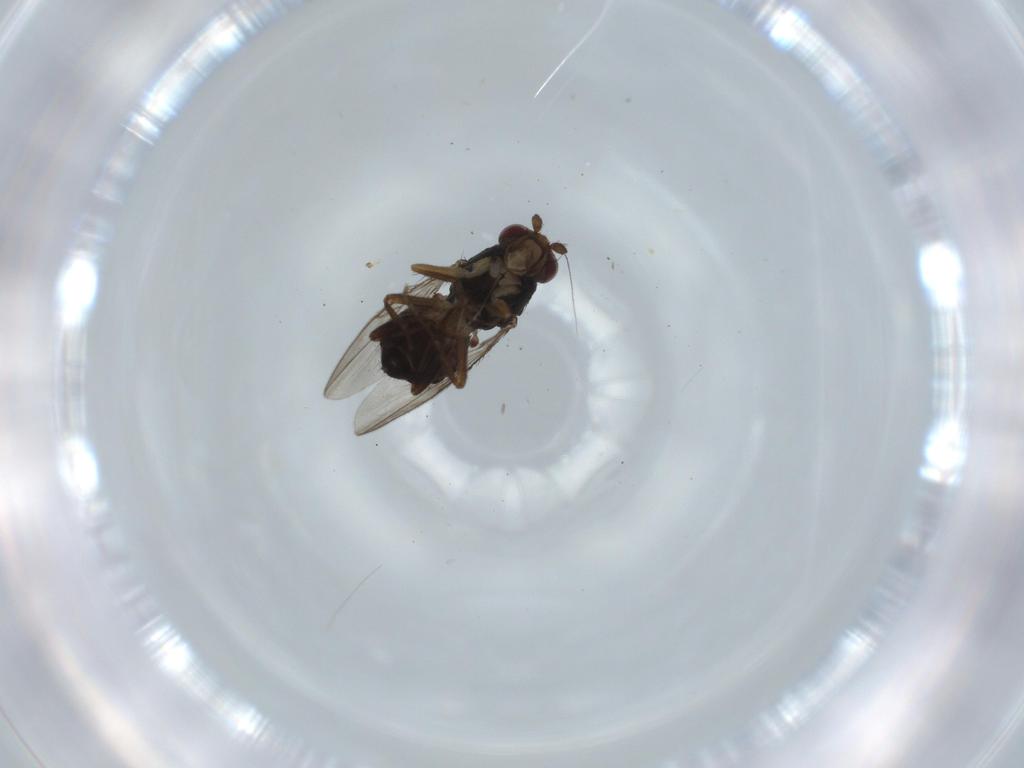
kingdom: Animalia
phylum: Arthropoda
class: Insecta
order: Diptera
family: Sphaeroceridae
